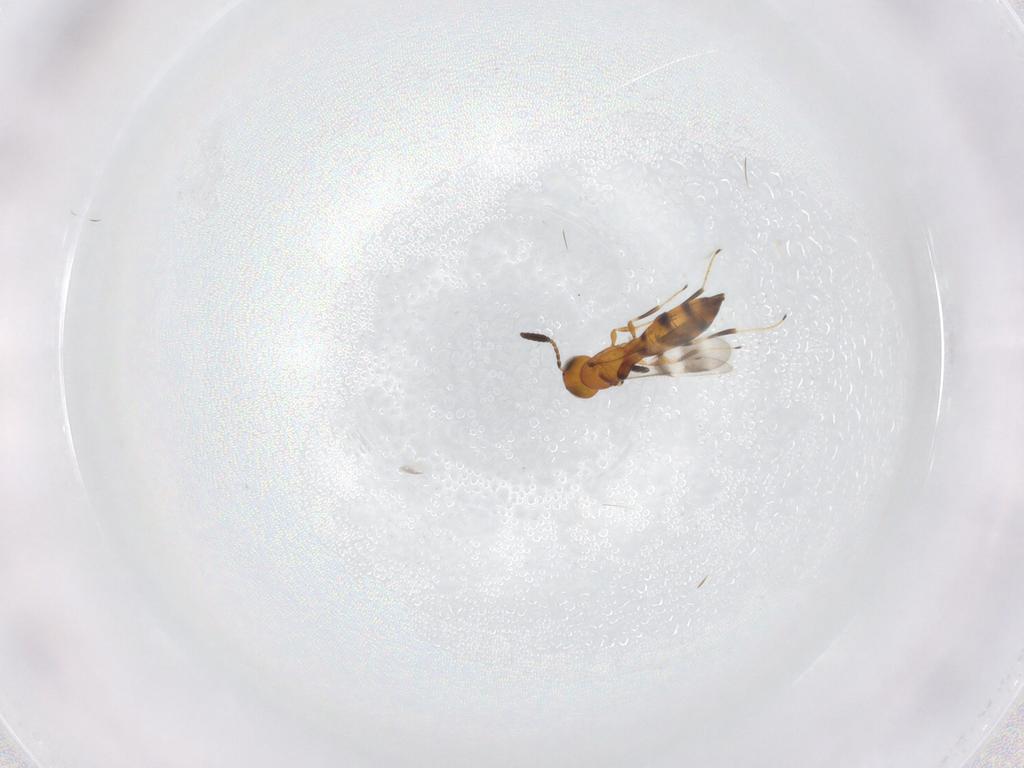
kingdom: Animalia
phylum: Arthropoda
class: Insecta
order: Hymenoptera
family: Scelionidae
